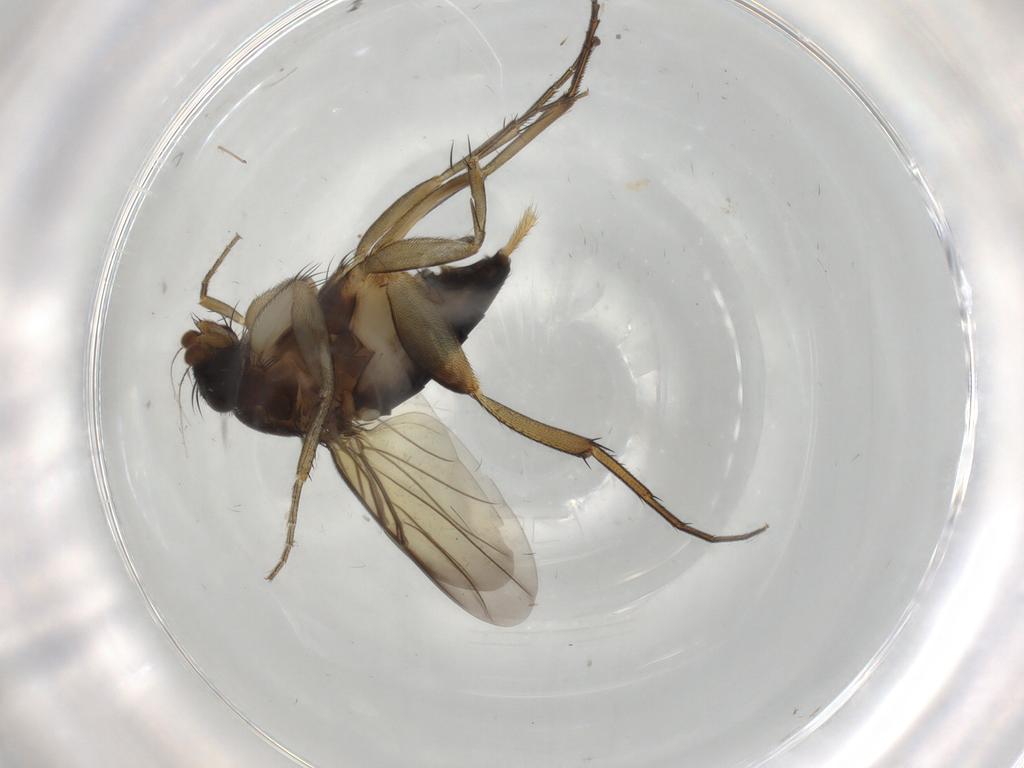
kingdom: Animalia
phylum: Arthropoda
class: Insecta
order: Diptera
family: Phoridae
